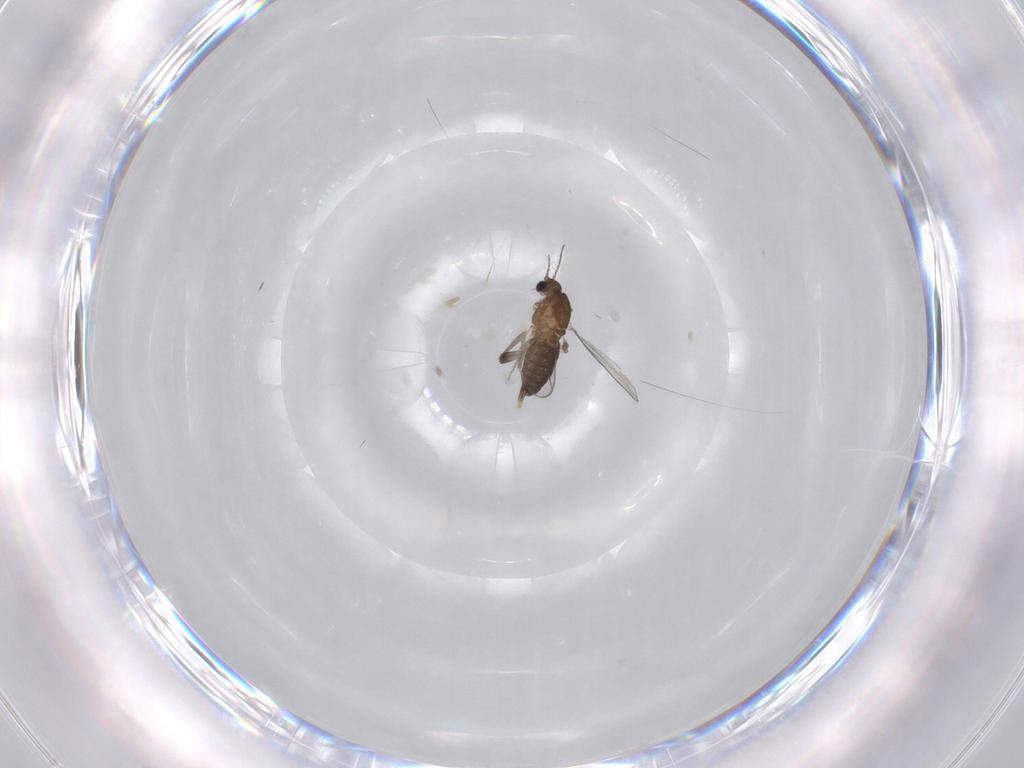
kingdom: Animalia
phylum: Arthropoda
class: Insecta
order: Diptera
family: Chironomidae
